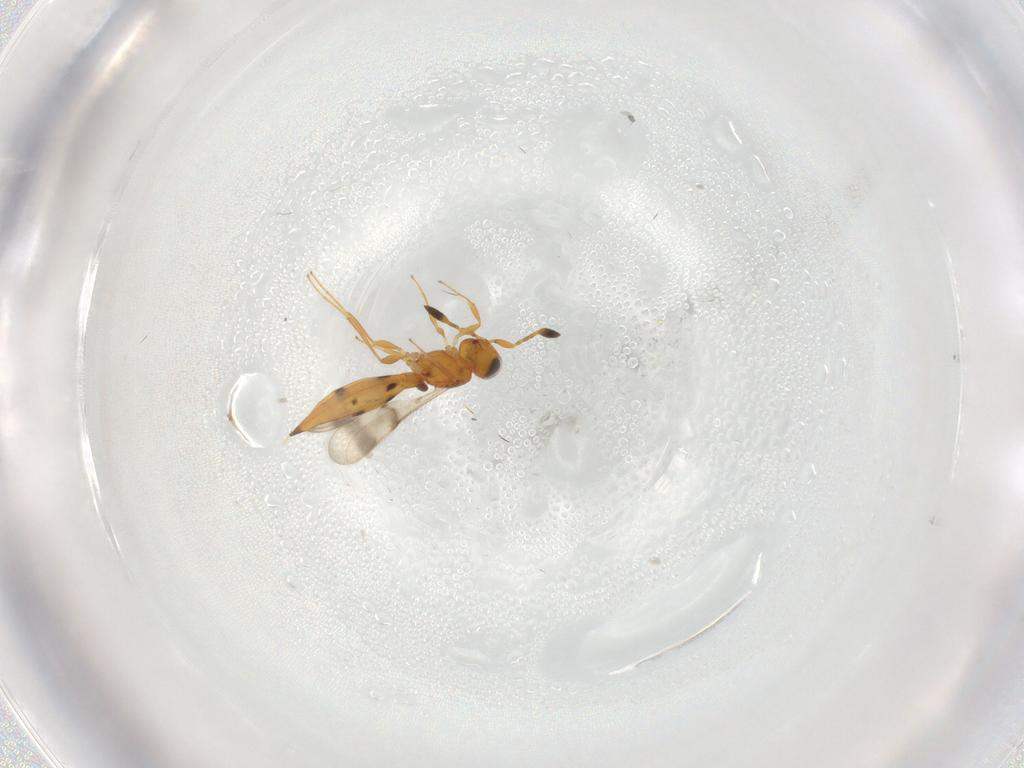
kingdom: Animalia
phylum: Arthropoda
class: Insecta
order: Hymenoptera
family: Scelionidae
